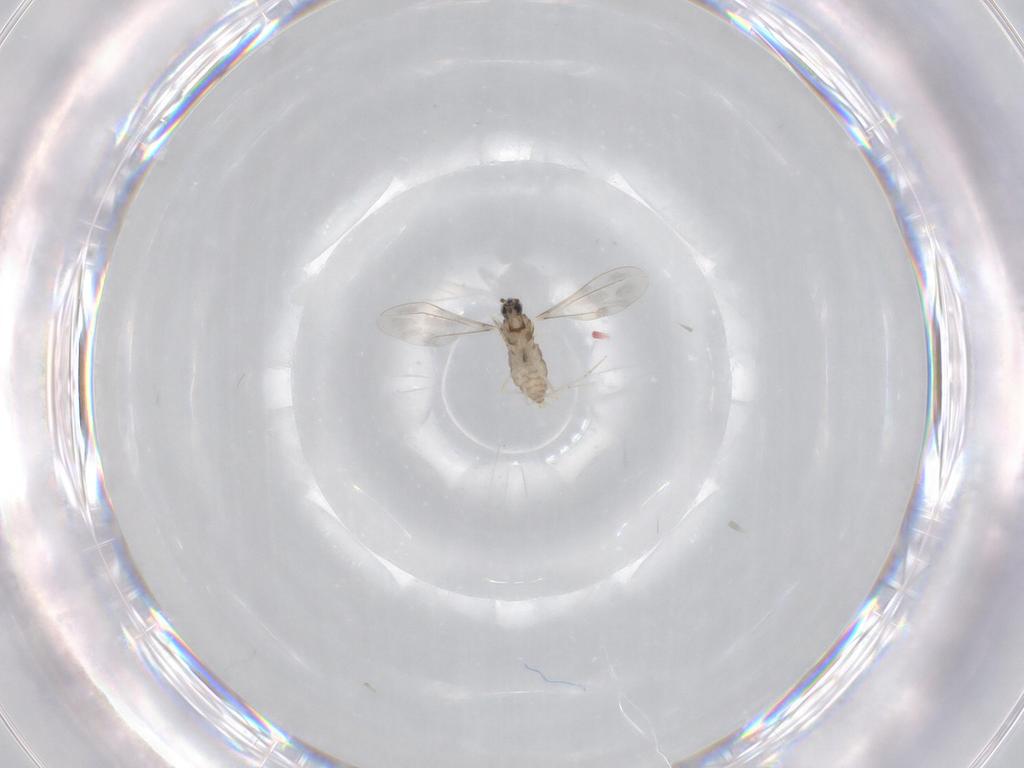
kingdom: Animalia
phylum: Arthropoda
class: Insecta
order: Diptera
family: Cecidomyiidae
